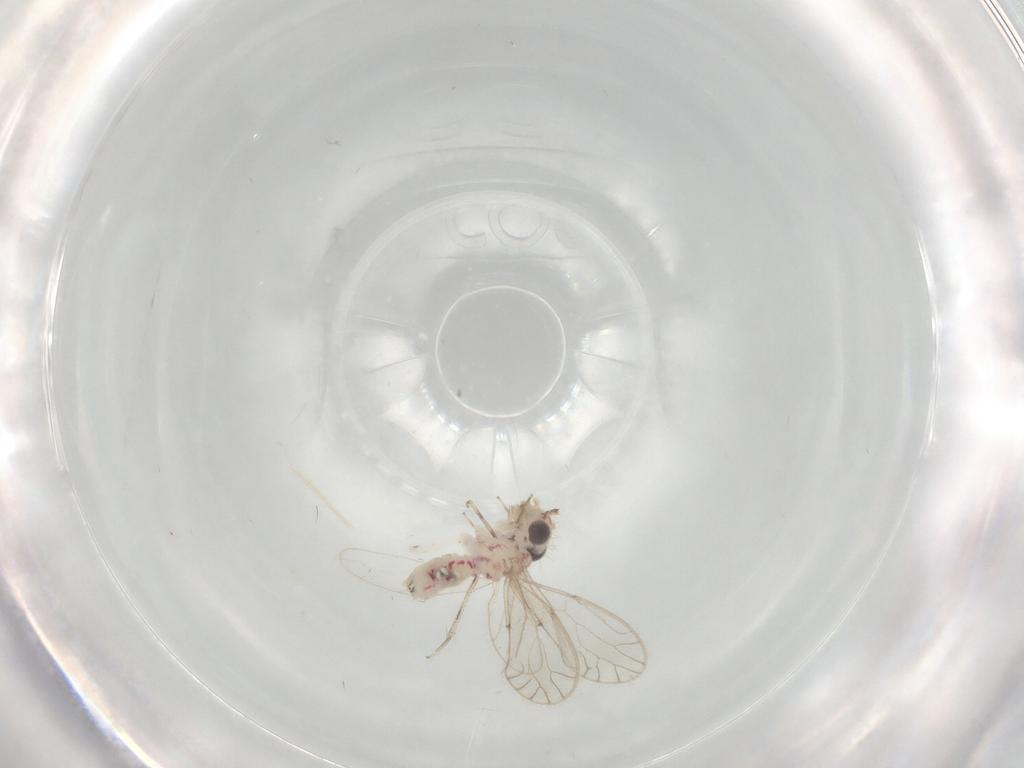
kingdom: Animalia
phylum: Arthropoda
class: Insecta
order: Psocodea
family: Caeciliusidae
